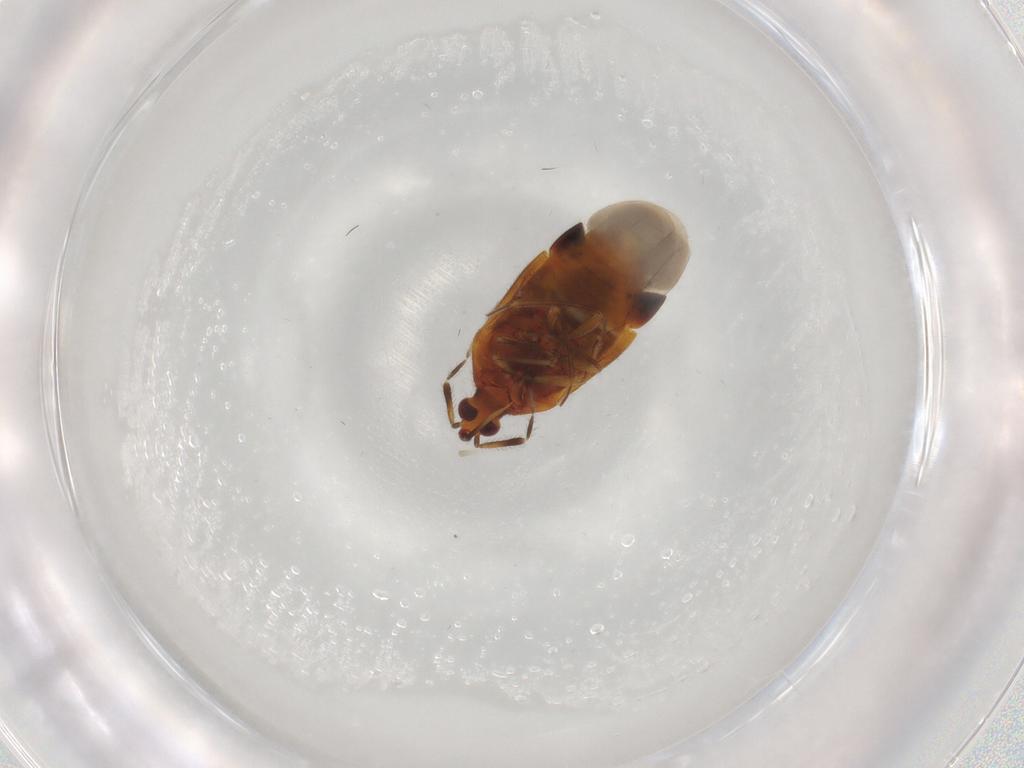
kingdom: Animalia
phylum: Arthropoda
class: Insecta
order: Hemiptera
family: Anthocoridae
